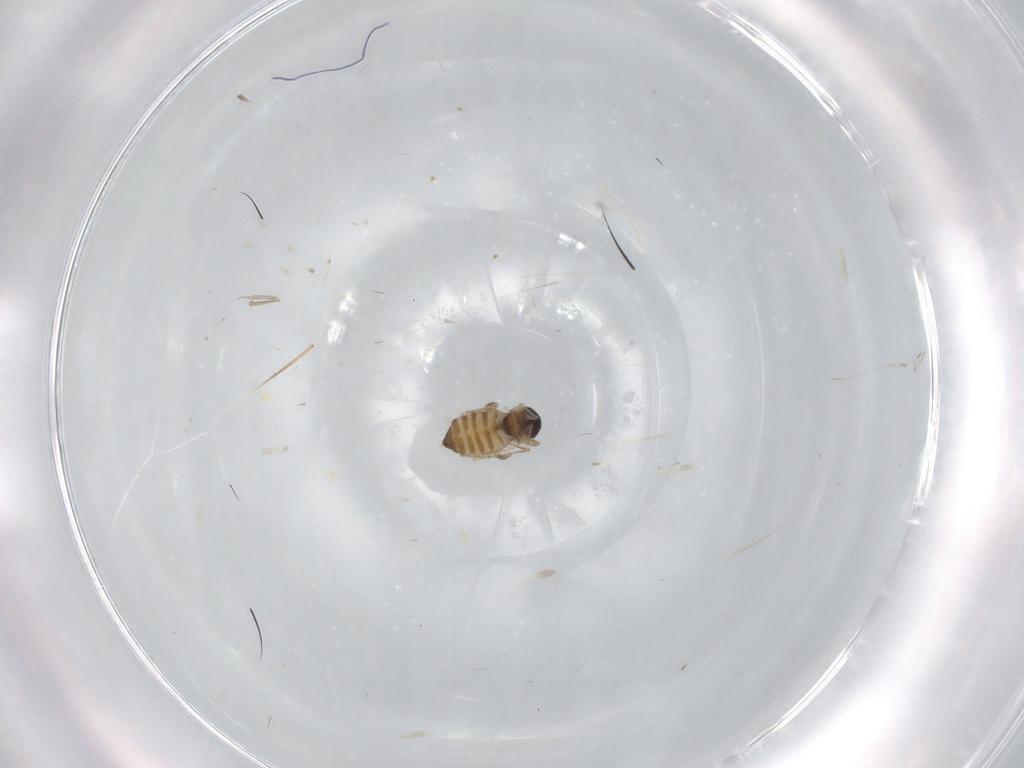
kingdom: Animalia
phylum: Arthropoda
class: Insecta
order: Diptera
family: Cecidomyiidae
